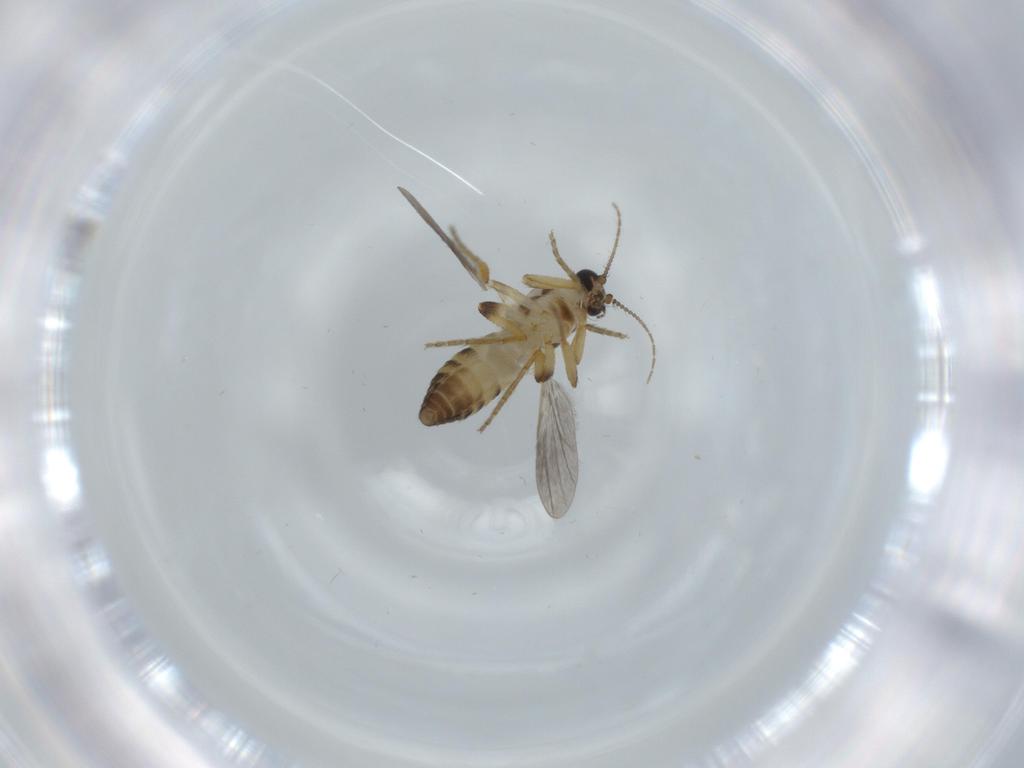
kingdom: Animalia
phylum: Arthropoda
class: Insecta
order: Diptera
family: Ceratopogonidae
